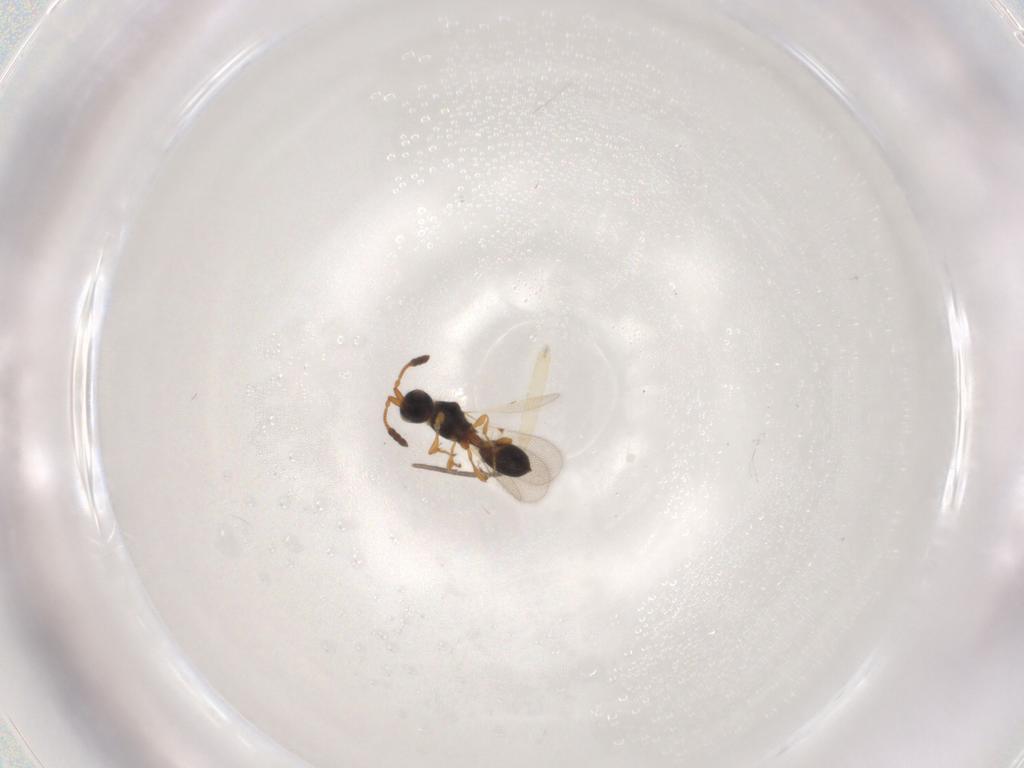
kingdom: Animalia
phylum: Arthropoda
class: Insecta
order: Hymenoptera
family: Diapriidae
